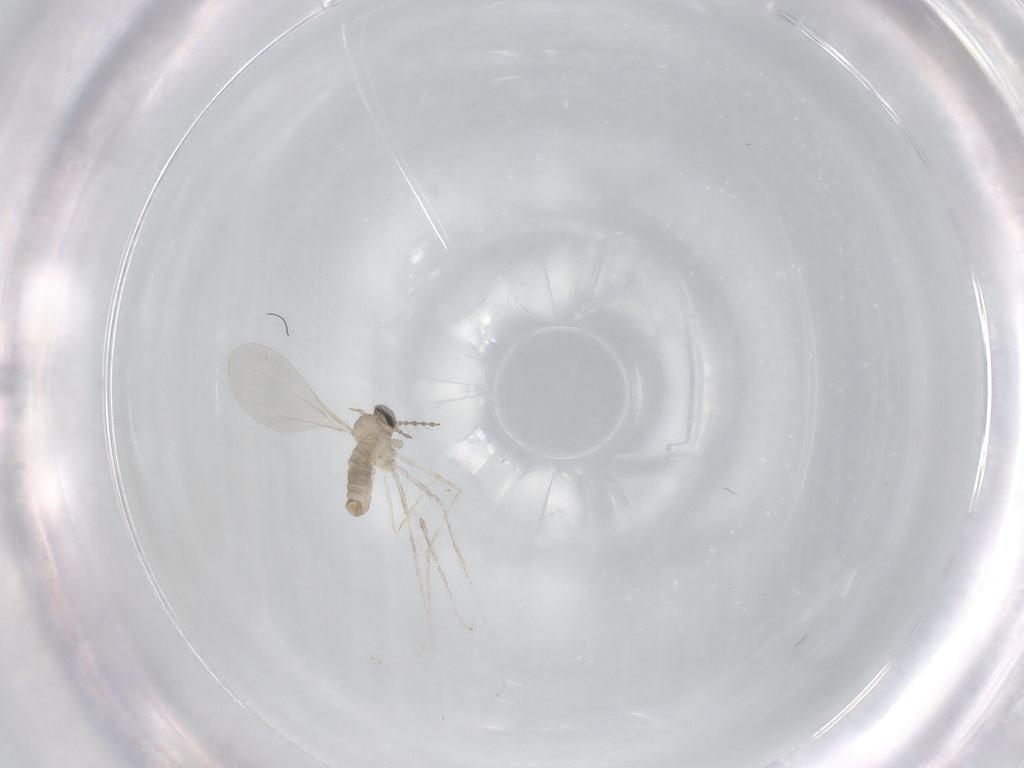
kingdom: Animalia
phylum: Arthropoda
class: Insecta
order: Diptera
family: Cecidomyiidae
